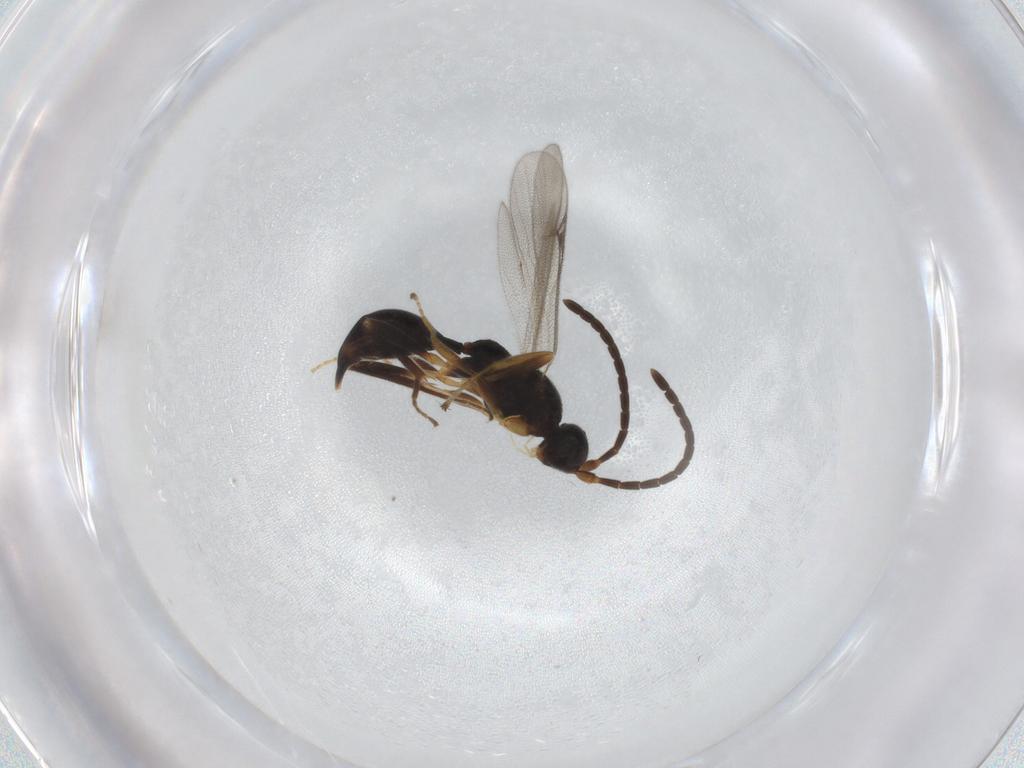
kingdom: Animalia
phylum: Arthropoda
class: Insecta
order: Hymenoptera
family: Proctotrupidae
